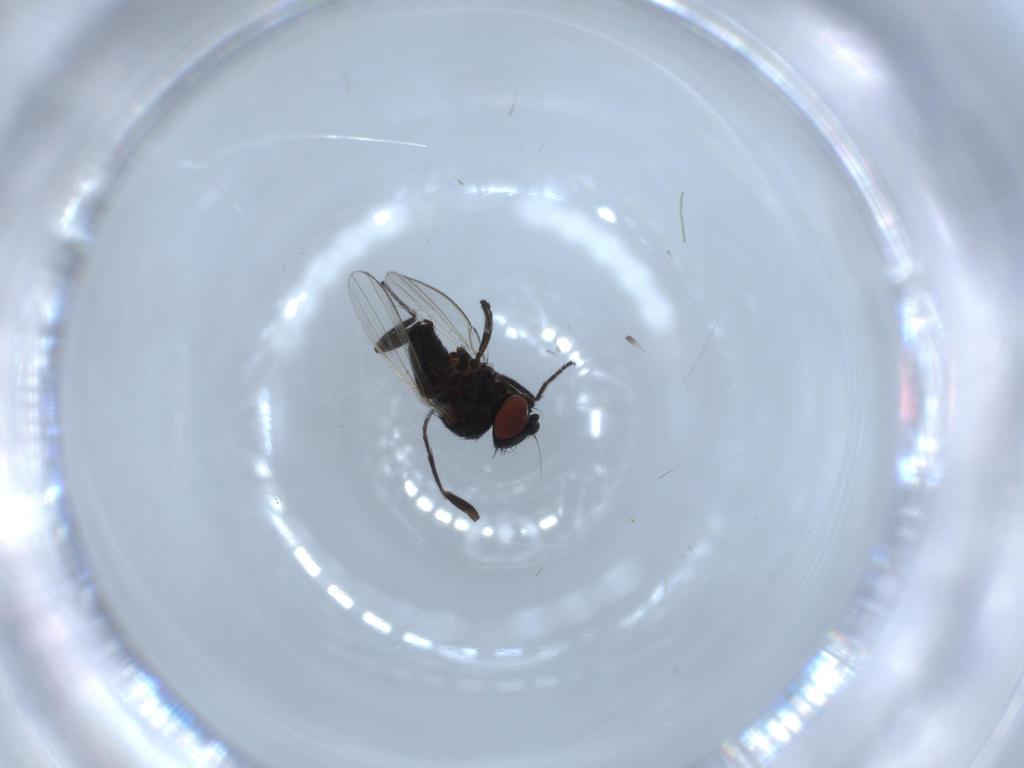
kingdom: Animalia
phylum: Arthropoda
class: Insecta
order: Diptera
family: Milichiidae
